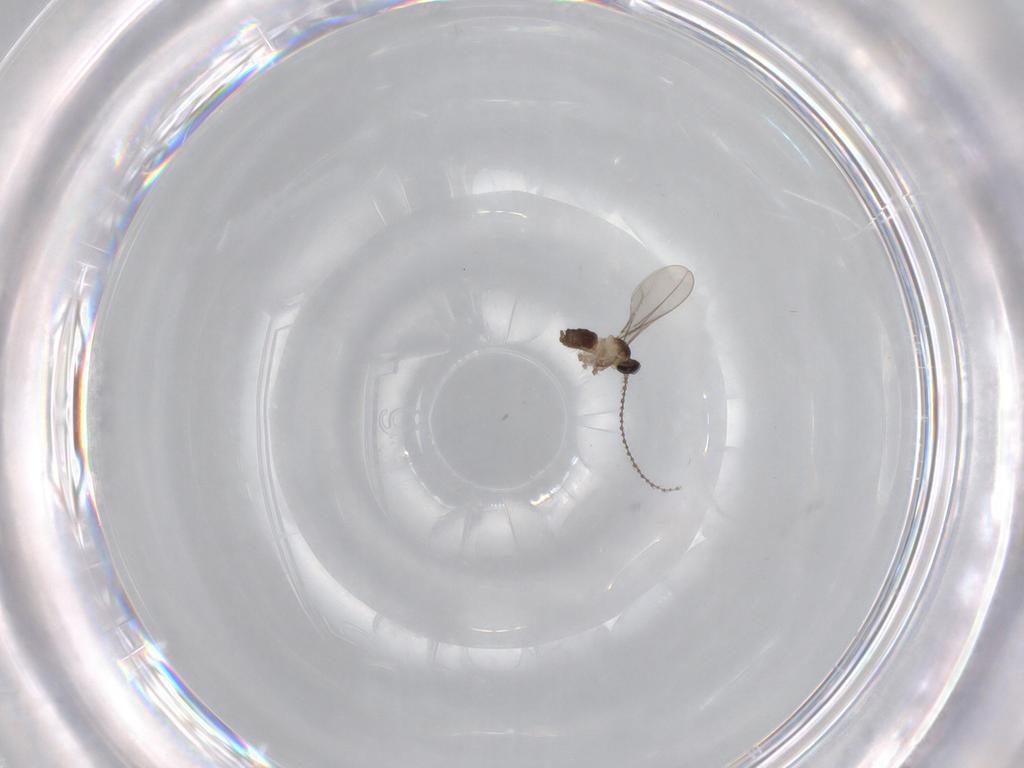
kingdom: Animalia
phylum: Arthropoda
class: Insecta
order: Diptera
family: Cecidomyiidae
